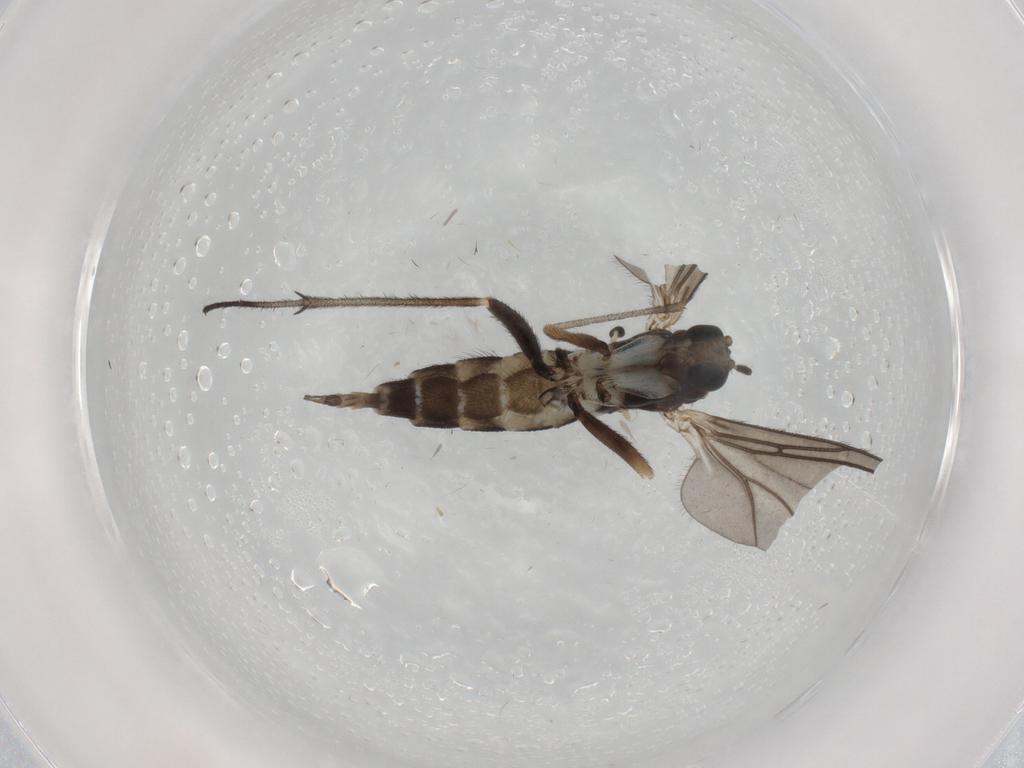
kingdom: Animalia
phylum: Arthropoda
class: Insecta
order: Diptera
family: Sciaridae
